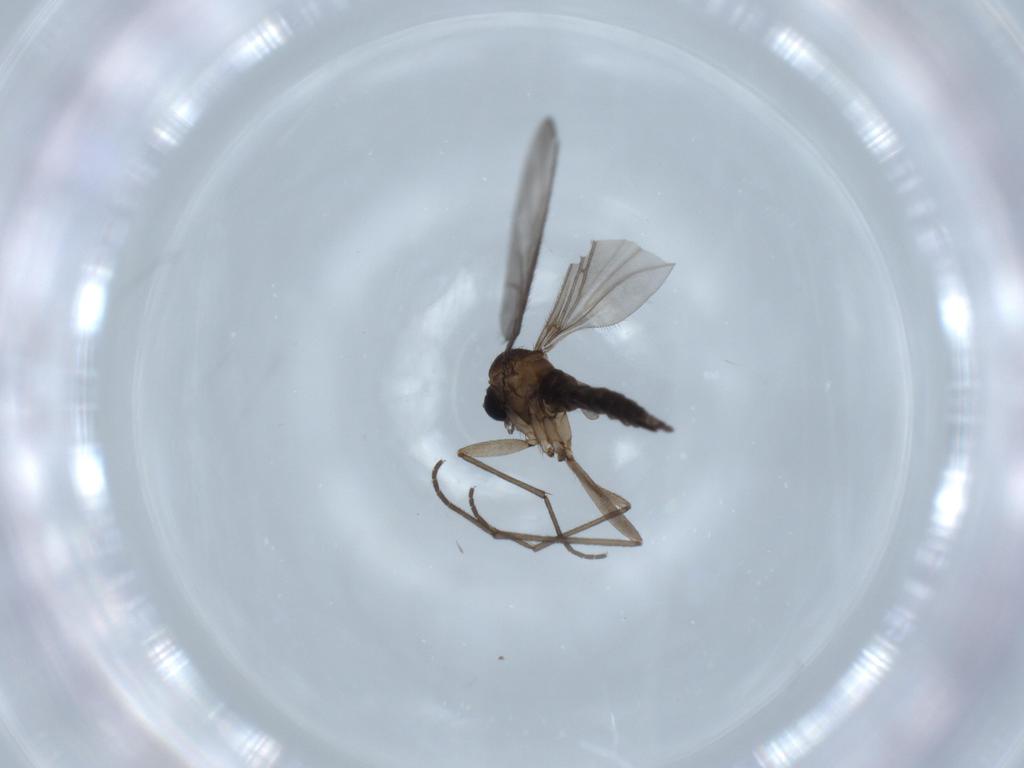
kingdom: Animalia
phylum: Arthropoda
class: Insecta
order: Diptera
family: Sciaridae
